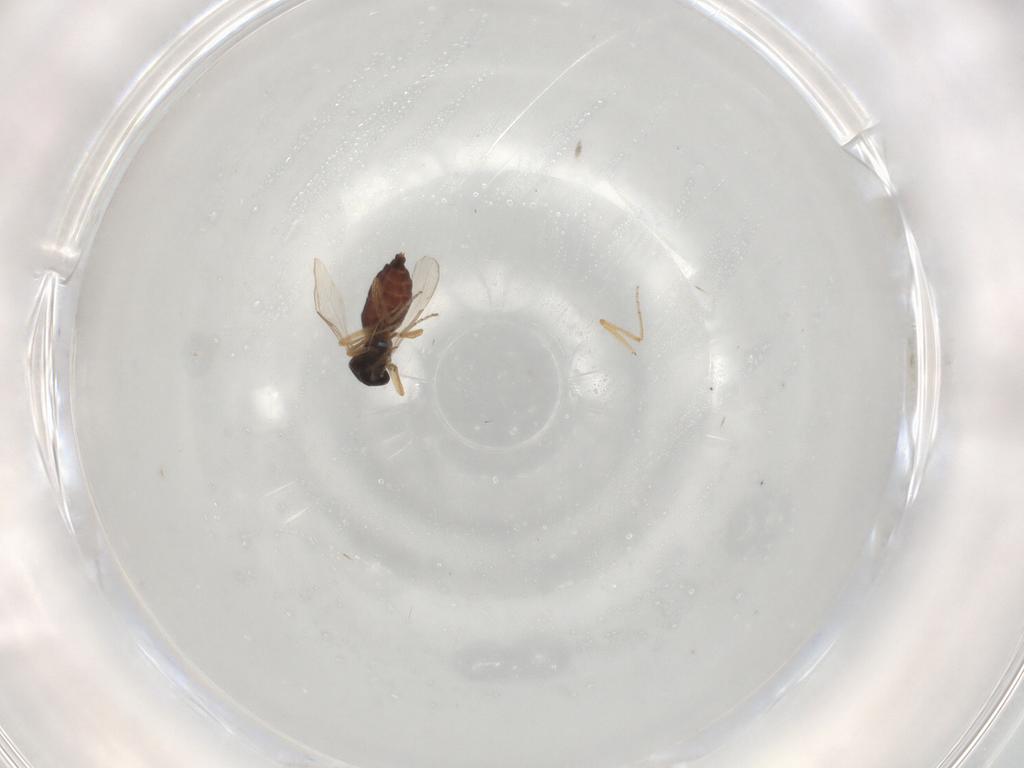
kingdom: Animalia
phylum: Arthropoda
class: Insecta
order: Diptera
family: Ceratopogonidae
